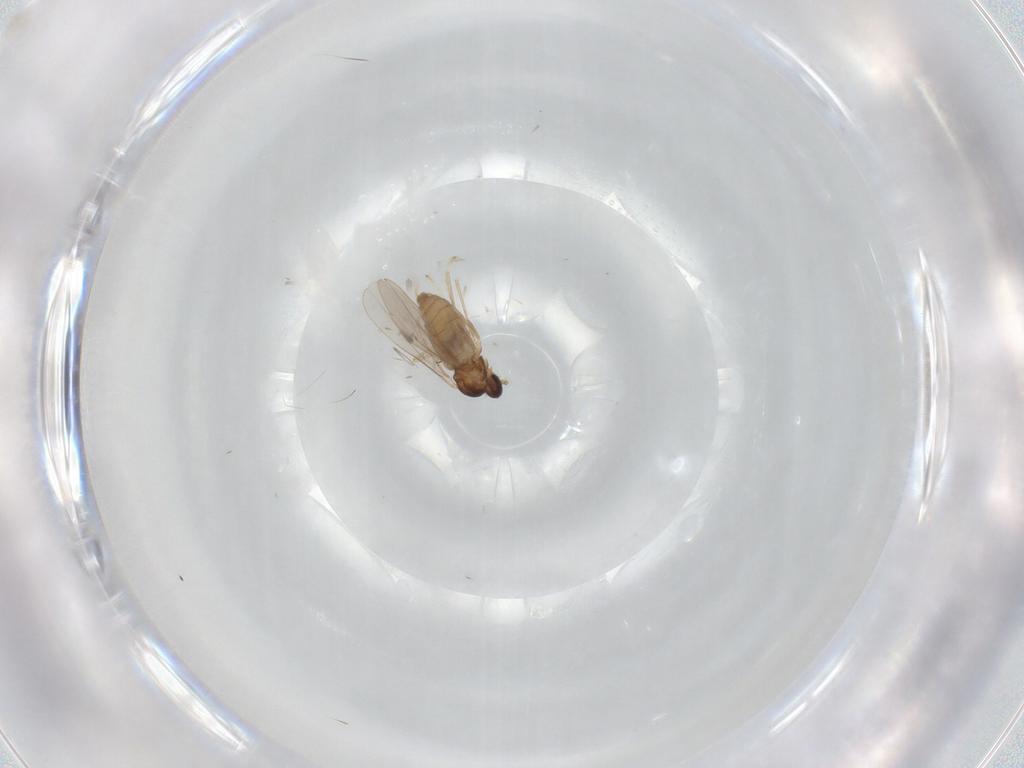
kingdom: Animalia
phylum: Arthropoda
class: Insecta
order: Diptera
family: Cecidomyiidae
